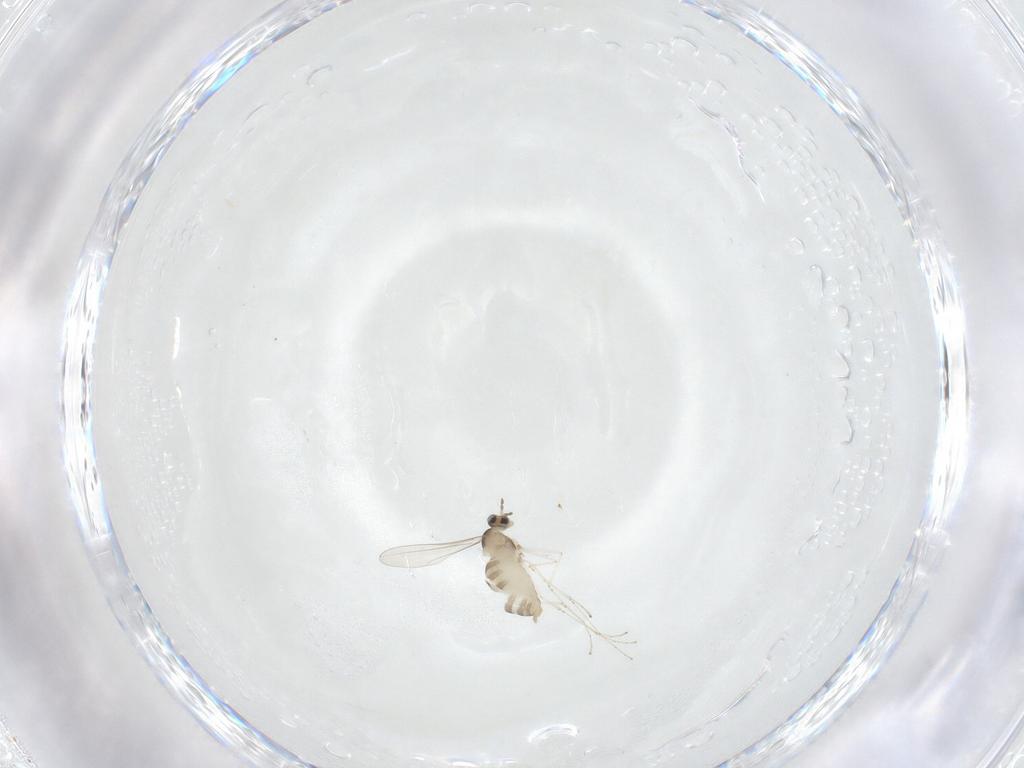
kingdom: Animalia
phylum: Arthropoda
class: Insecta
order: Diptera
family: Cecidomyiidae
